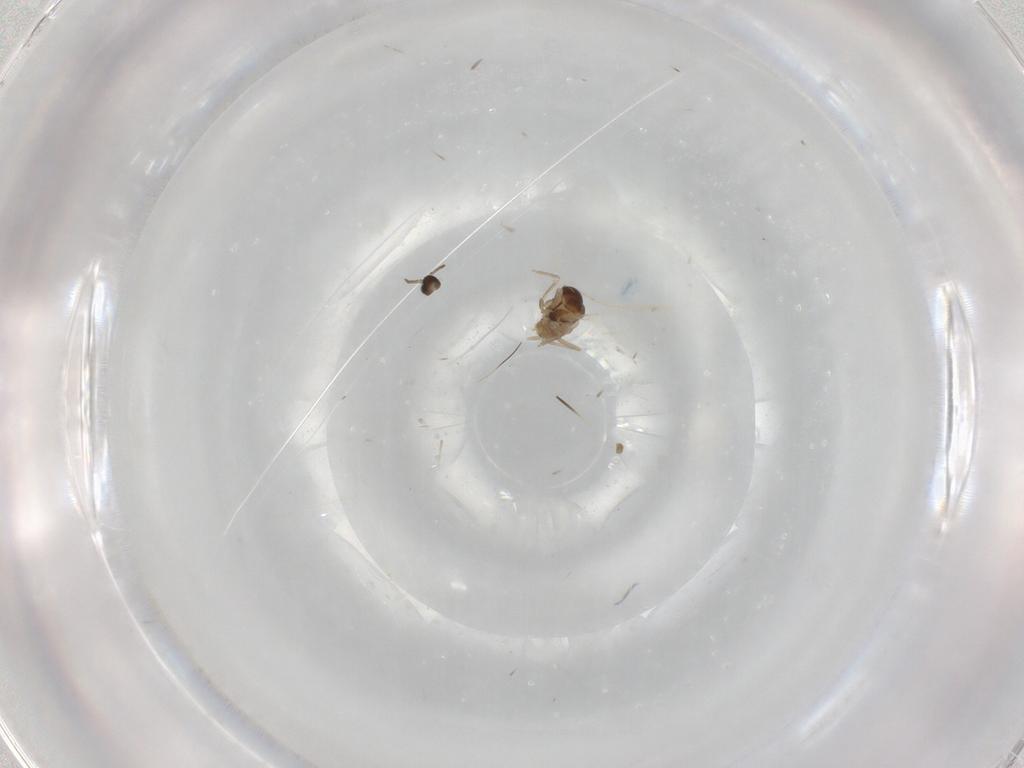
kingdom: Animalia
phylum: Arthropoda
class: Insecta
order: Diptera
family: Cecidomyiidae
